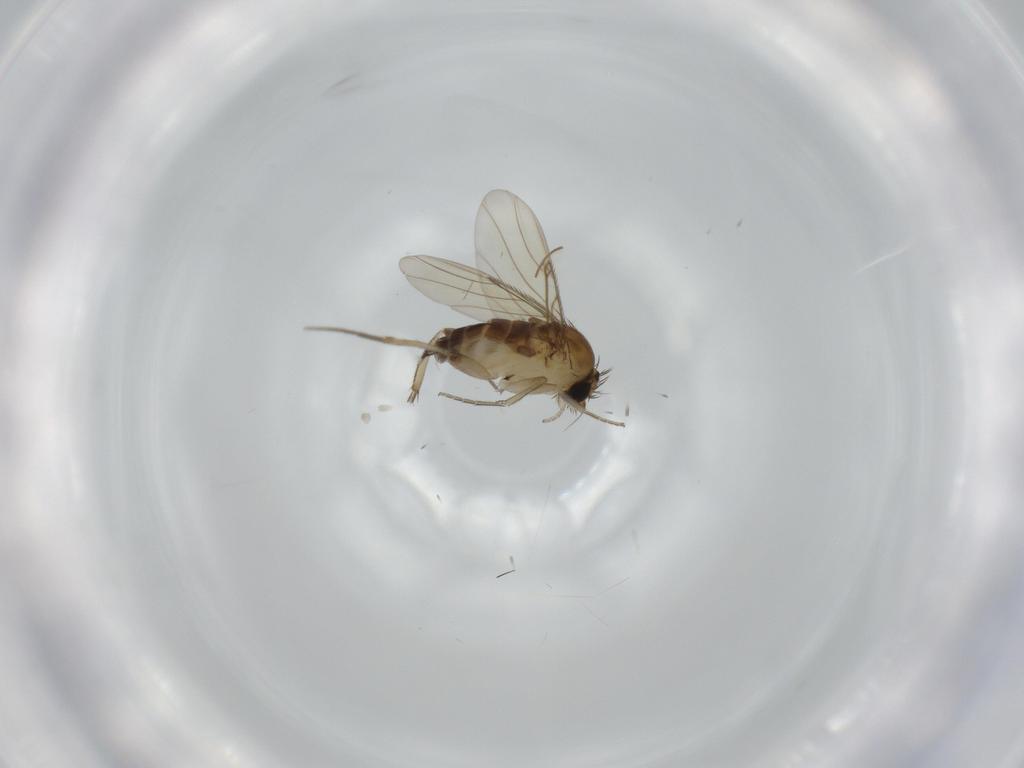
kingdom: Animalia
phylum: Arthropoda
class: Insecta
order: Diptera
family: Phoridae
